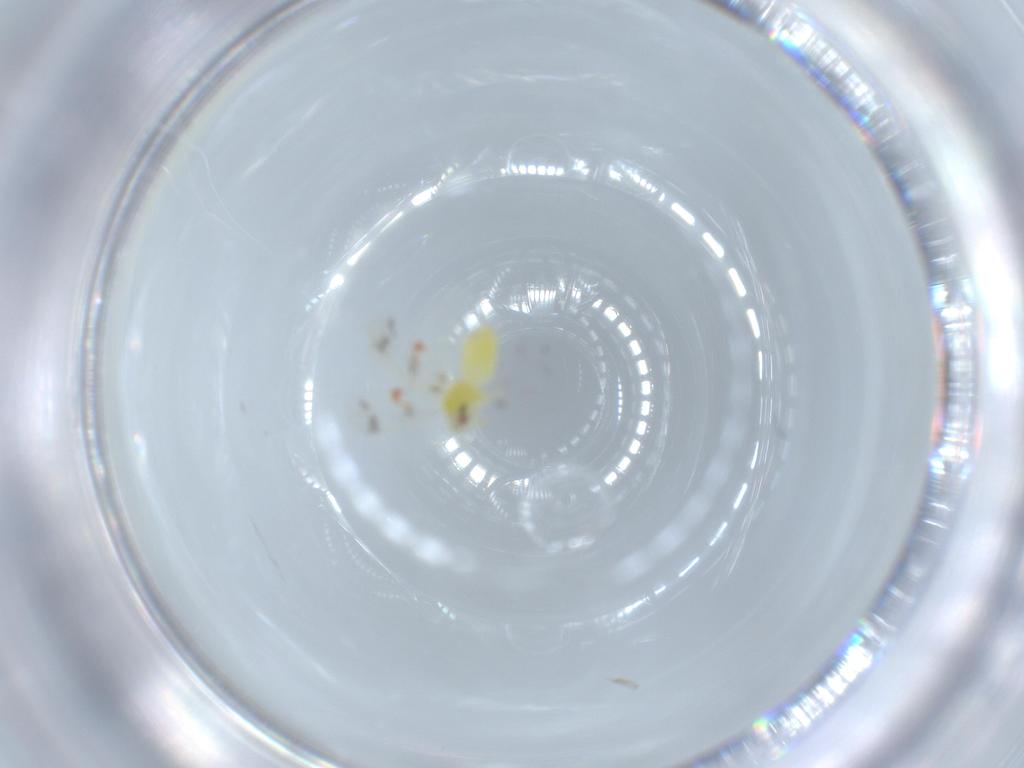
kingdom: Animalia
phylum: Arthropoda
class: Insecta
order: Hemiptera
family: Aleyrodidae
